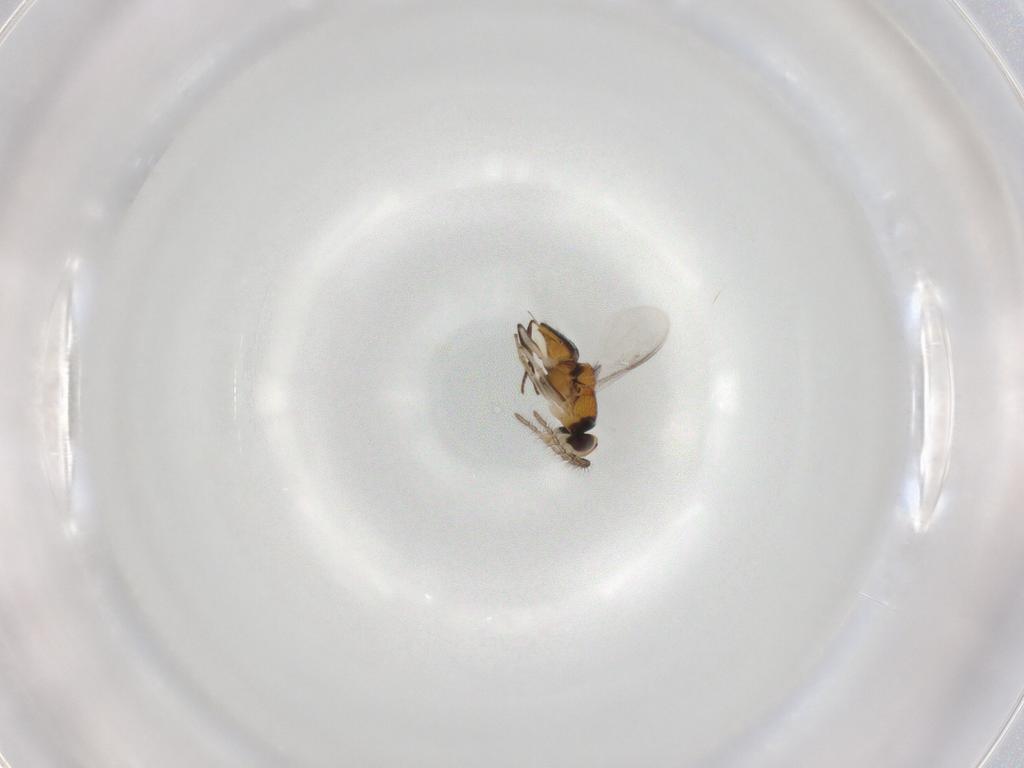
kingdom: Animalia
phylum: Arthropoda
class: Insecta
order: Hymenoptera
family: Encyrtidae
